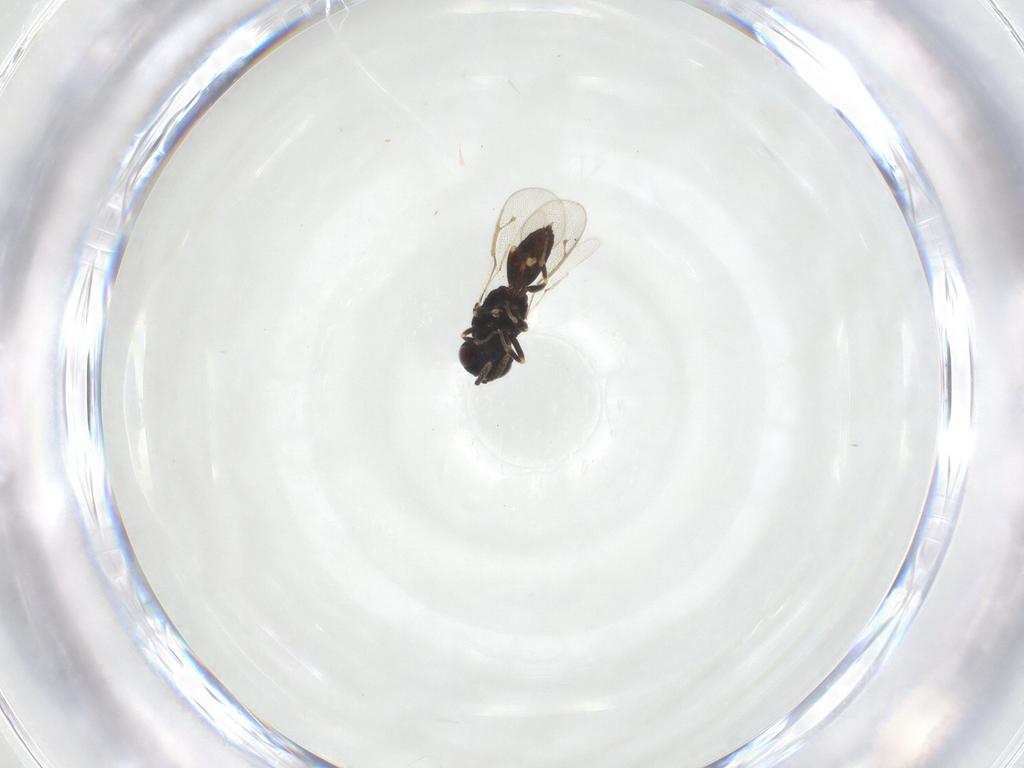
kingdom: Animalia
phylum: Arthropoda
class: Insecta
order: Hymenoptera
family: Pteromalidae
